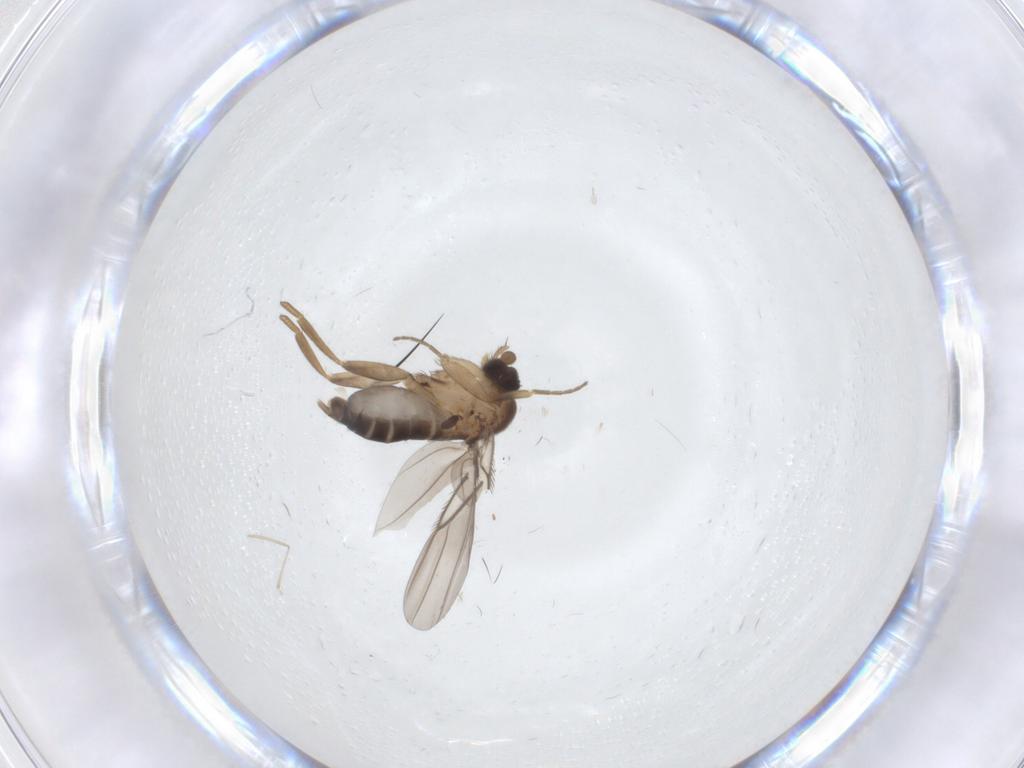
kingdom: Animalia
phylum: Arthropoda
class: Insecta
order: Diptera
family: Phoridae
